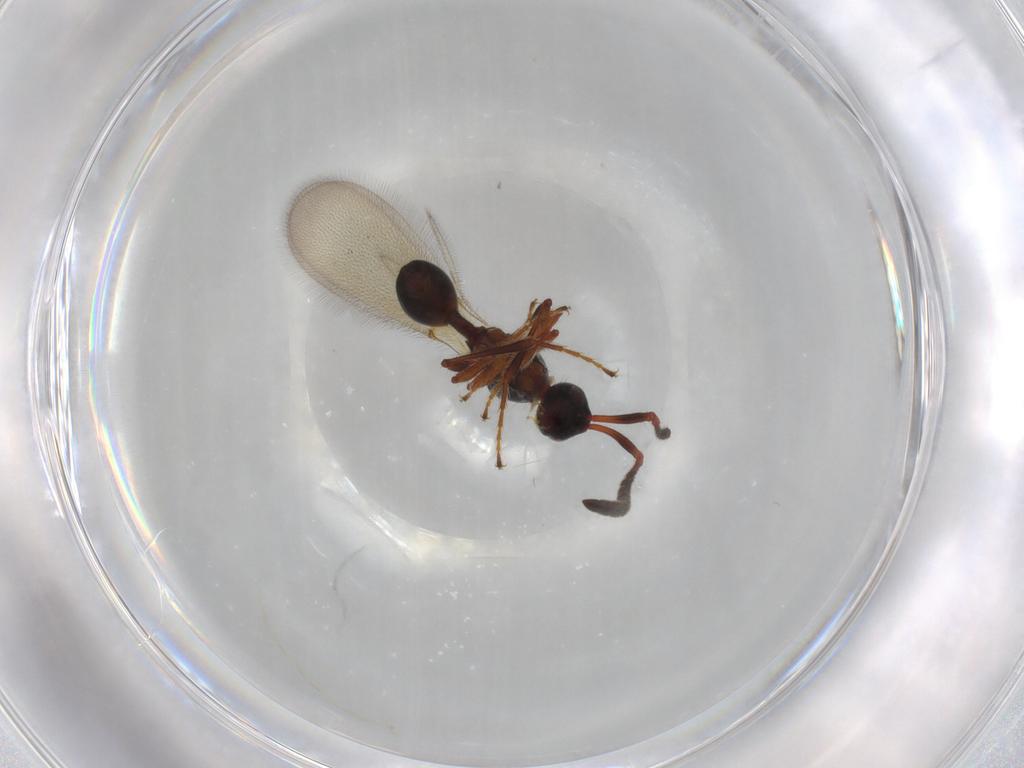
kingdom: Animalia
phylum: Arthropoda
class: Insecta
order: Hymenoptera
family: Diapriidae
